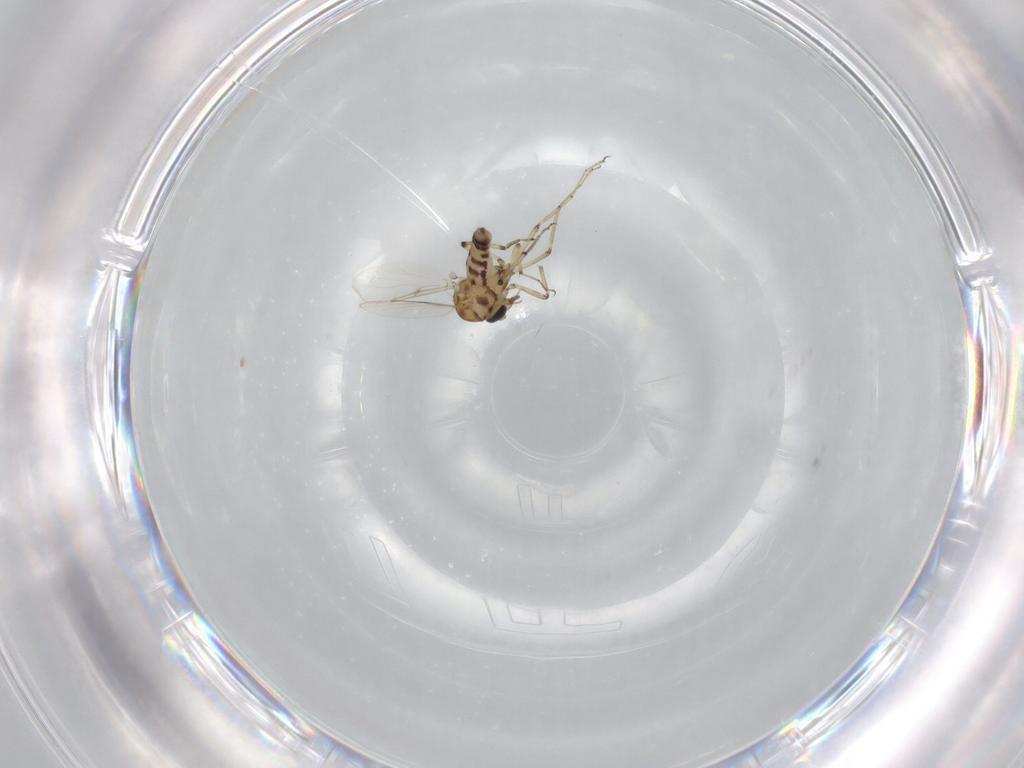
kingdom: Animalia
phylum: Arthropoda
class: Insecta
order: Diptera
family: Ceratopogonidae
